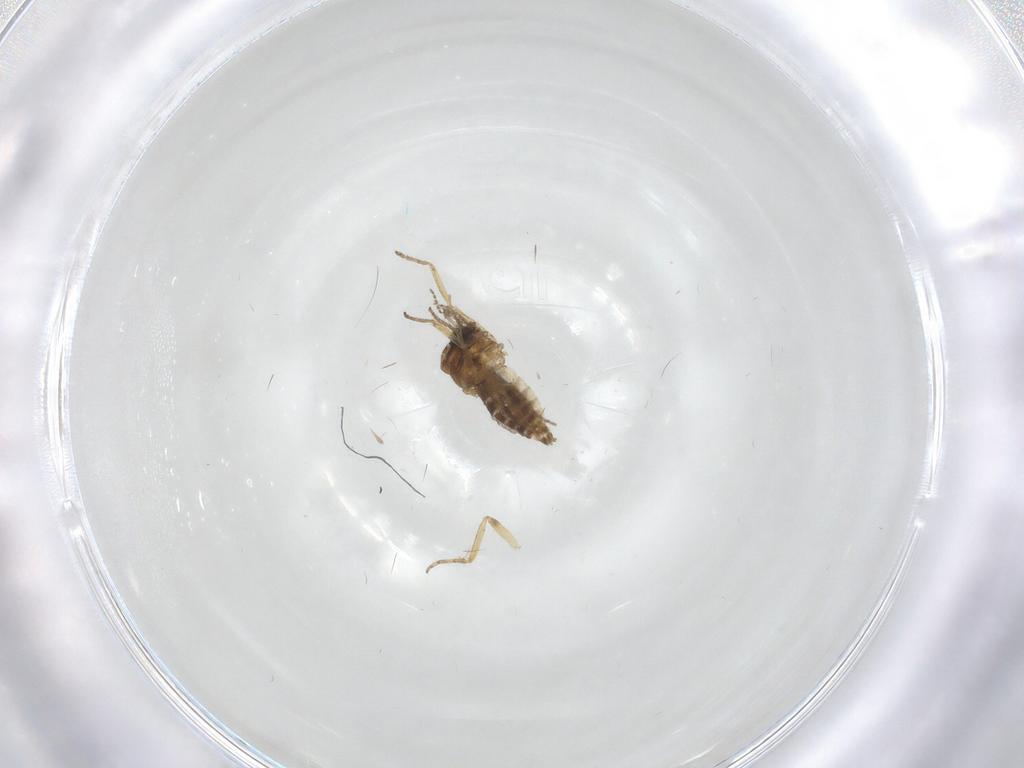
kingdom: Animalia
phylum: Arthropoda
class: Insecta
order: Diptera
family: Ceratopogonidae
